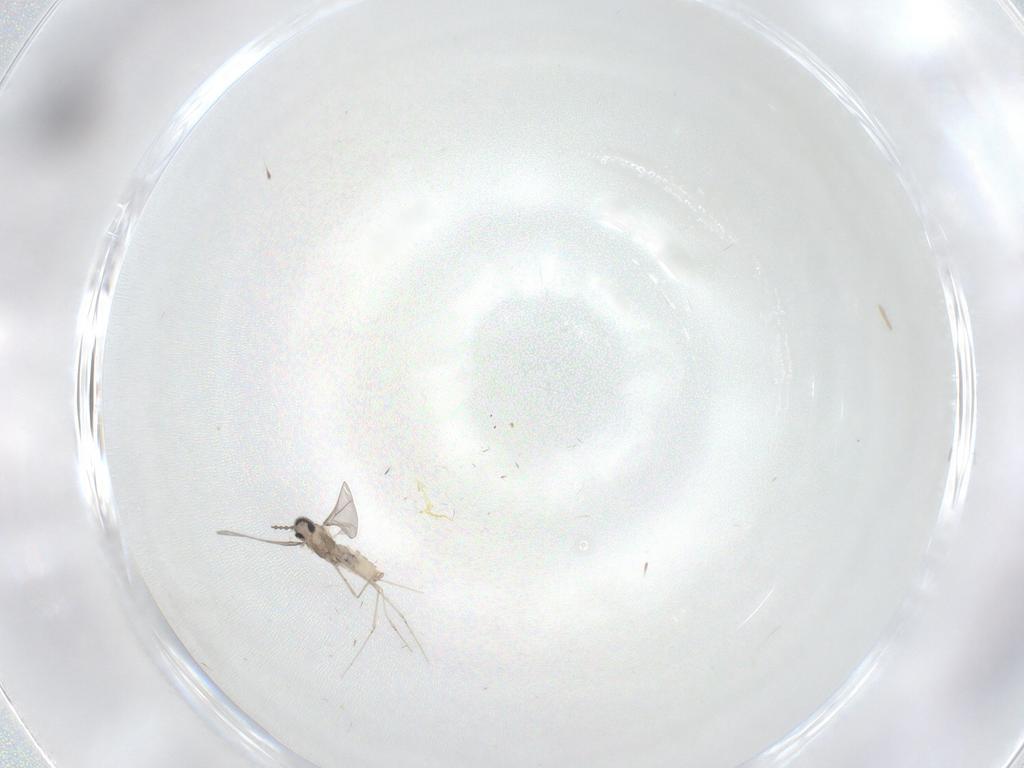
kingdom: Animalia
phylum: Arthropoda
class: Insecta
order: Diptera
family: Cecidomyiidae
